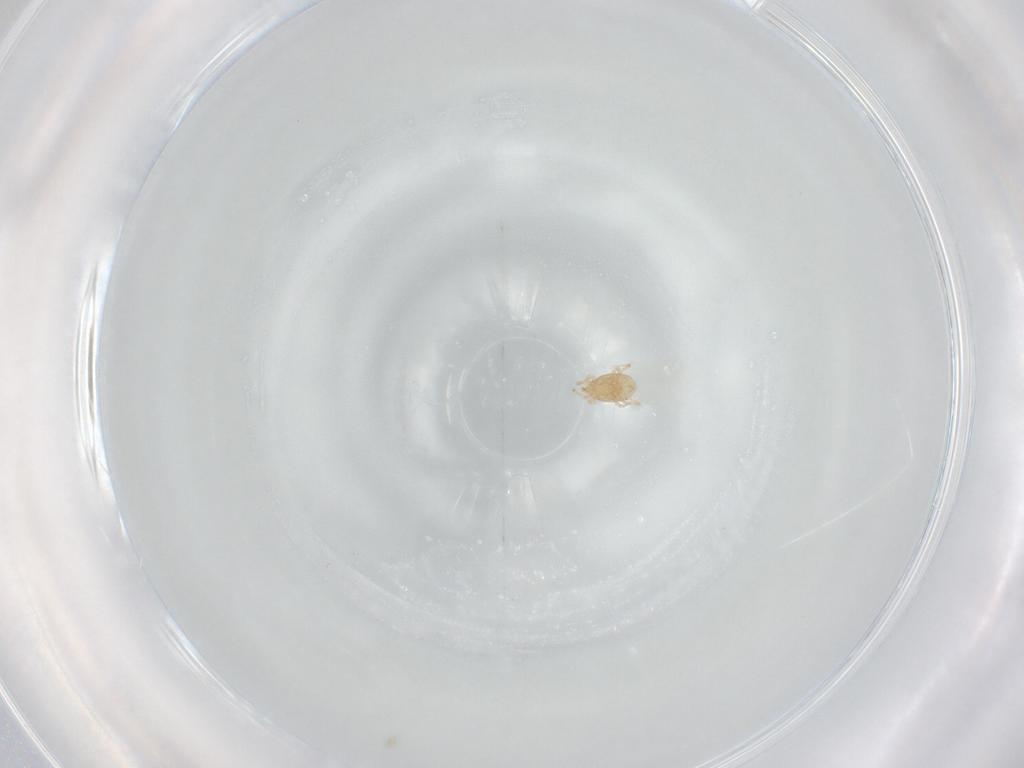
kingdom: Animalia
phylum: Arthropoda
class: Arachnida
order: Mesostigmata
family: Melicharidae
